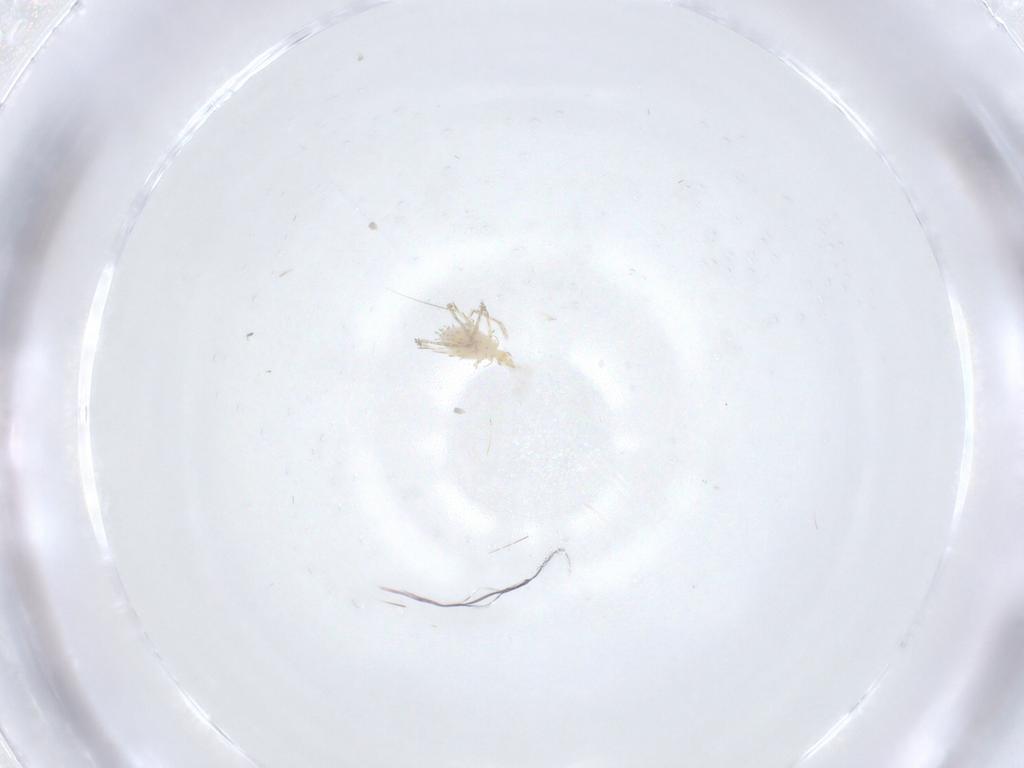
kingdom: Animalia
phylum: Arthropoda
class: Arachnida
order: Trombidiformes
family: Erythraeidae
